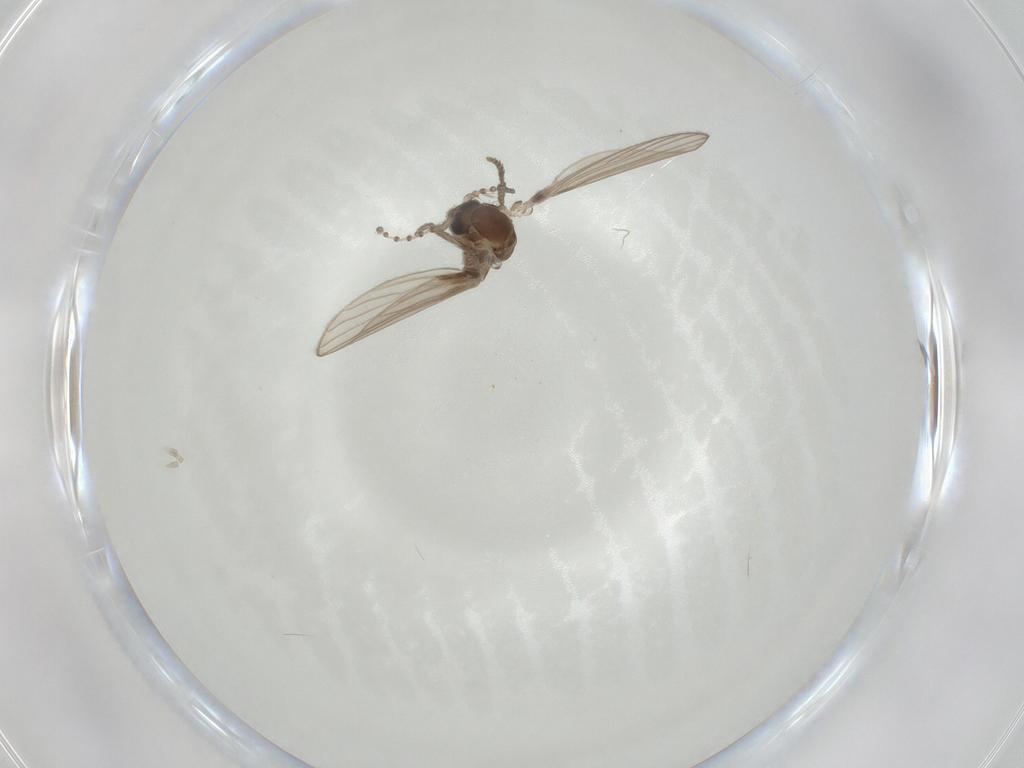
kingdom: Animalia
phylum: Arthropoda
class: Insecta
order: Diptera
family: Psychodidae
